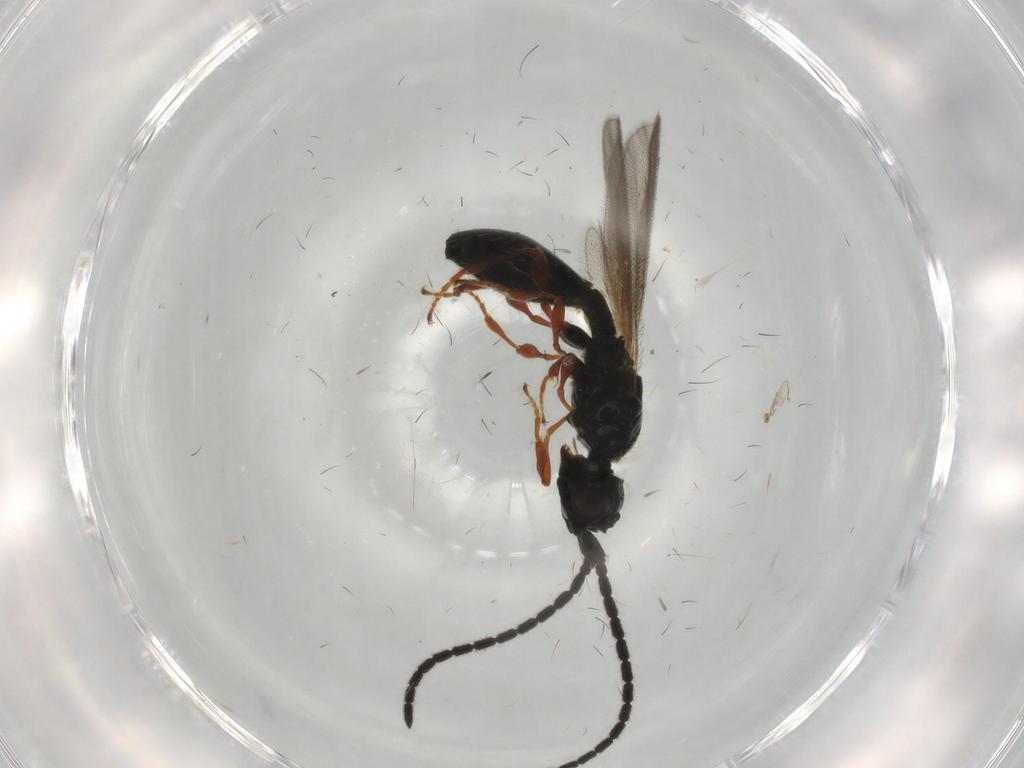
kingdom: Animalia
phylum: Arthropoda
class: Insecta
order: Hymenoptera
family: Diapriidae
